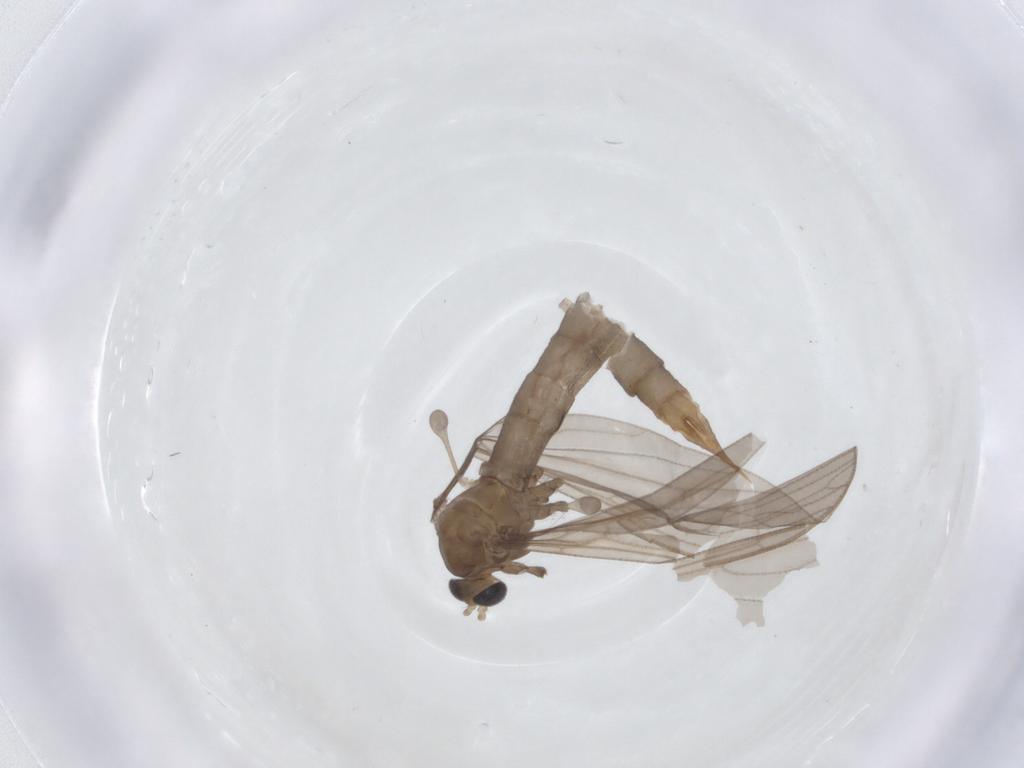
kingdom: Animalia
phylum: Arthropoda
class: Insecta
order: Diptera
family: Limoniidae
